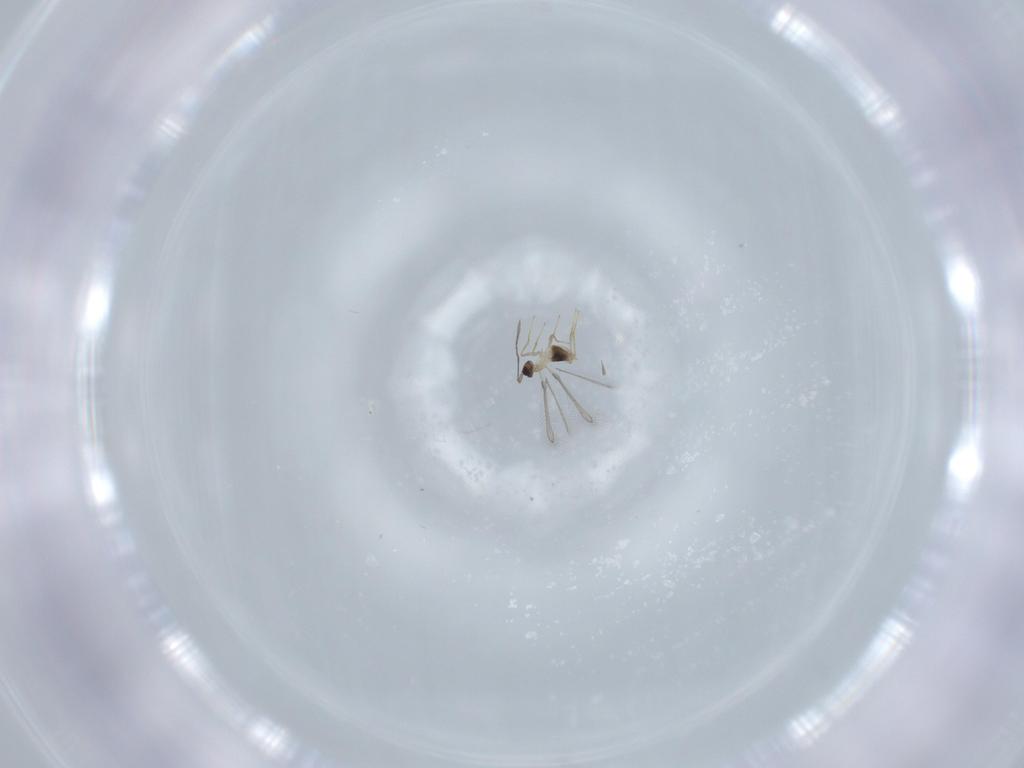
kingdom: Animalia
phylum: Arthropoda
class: Insecta
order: Hymenoptera
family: Mymaridae
